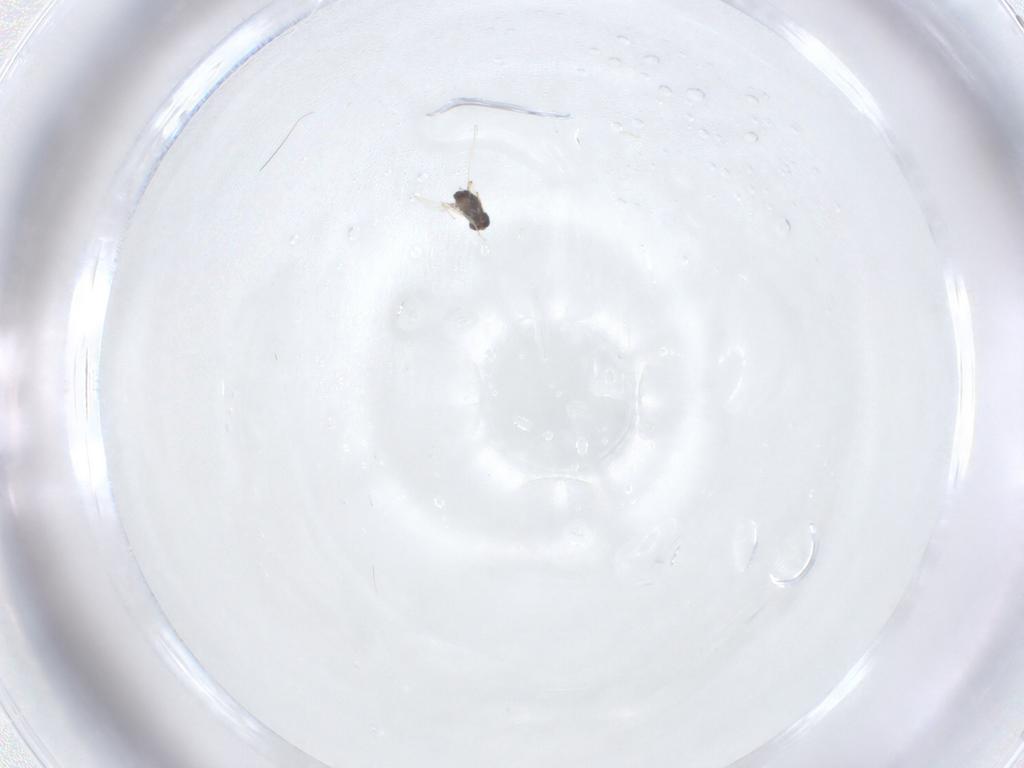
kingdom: Animalia
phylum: Arthropoda
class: Insecta
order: Diptera
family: Chironomidae
